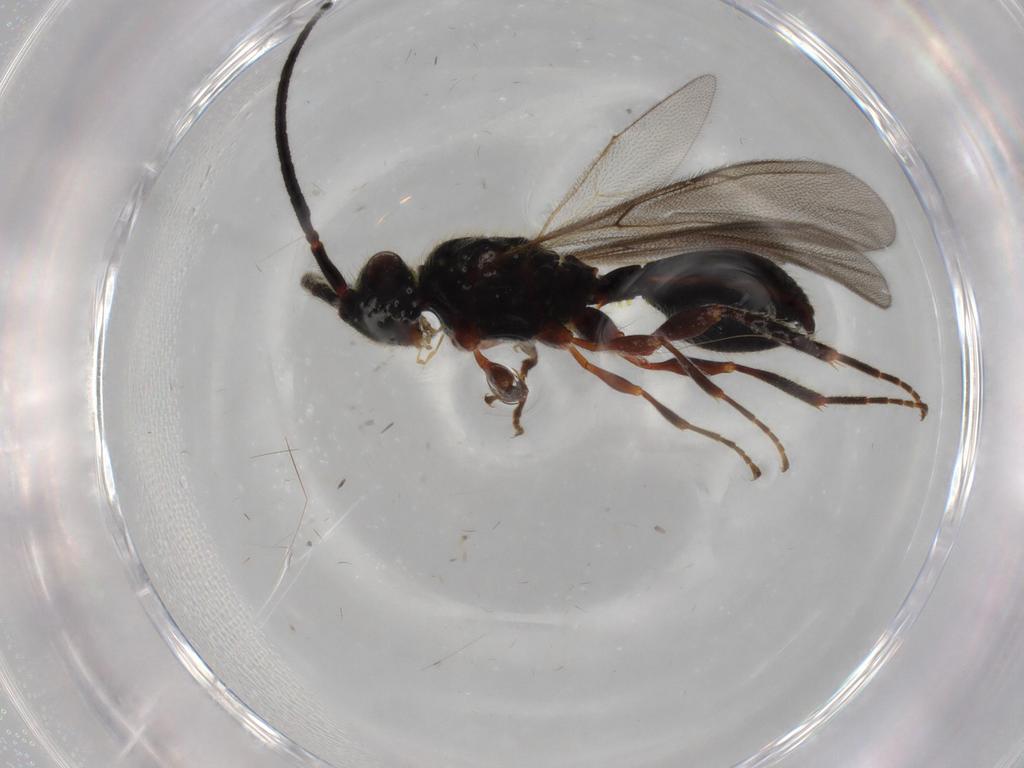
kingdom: Animalia
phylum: Arthropoda
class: Insecta
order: Hymenoptera
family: Diapriidae
